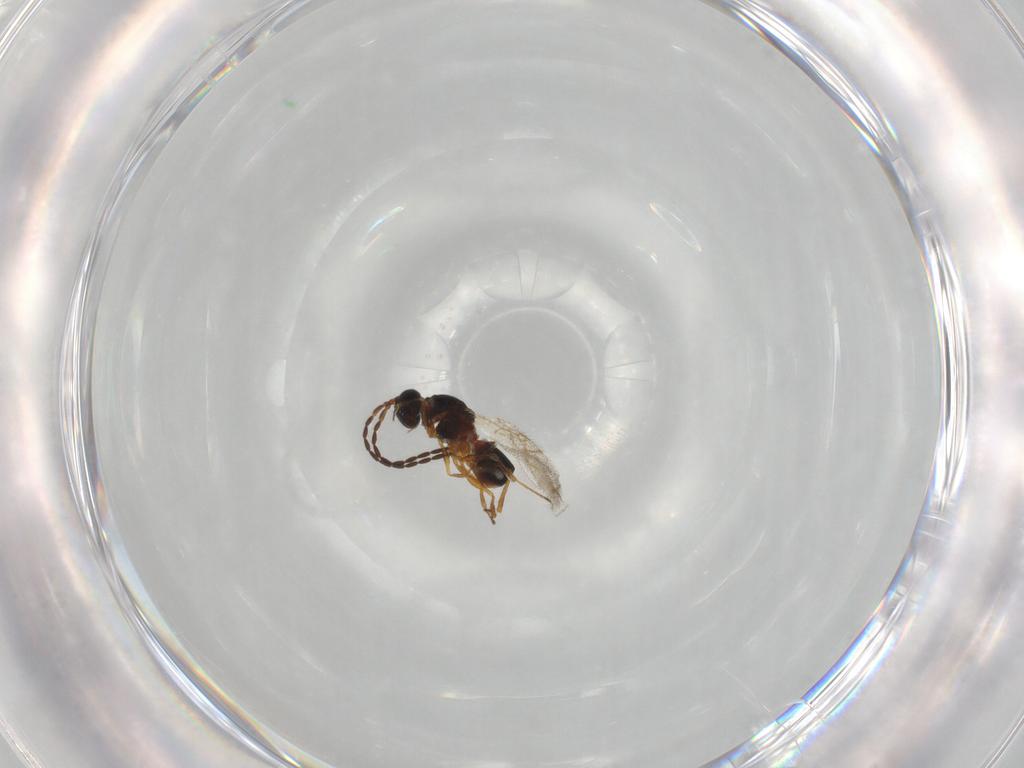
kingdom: Animalia
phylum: Arthropoda
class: Insecta
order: Hymenoptera
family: Figitidae
